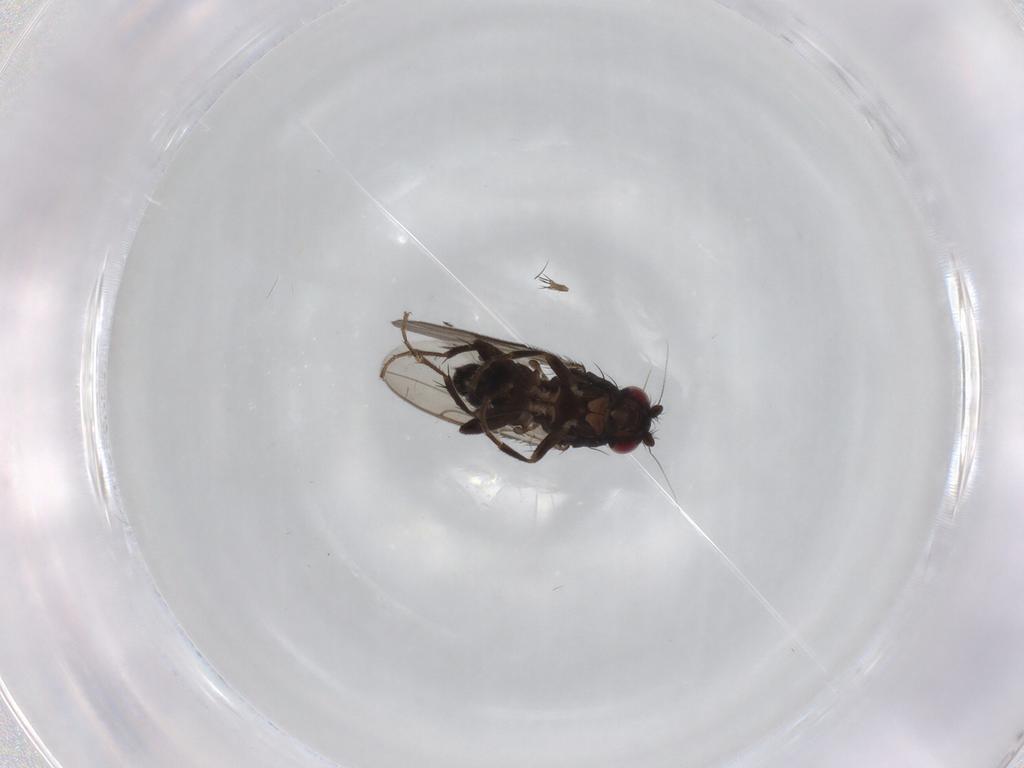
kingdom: Animalia
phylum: Arthropoda
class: Insecta
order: Diptera
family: Sphaeroceridae
